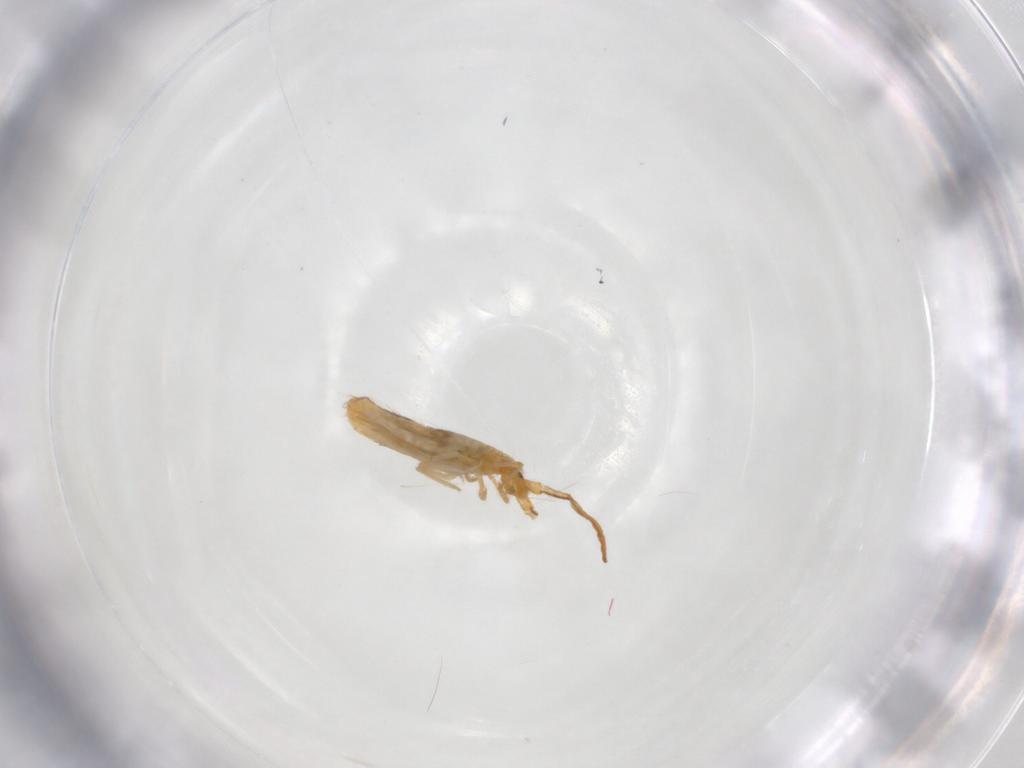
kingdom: Animalia
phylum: Arthropoda
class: Collembola
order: Entomobryomorpha
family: Entomobryidae
